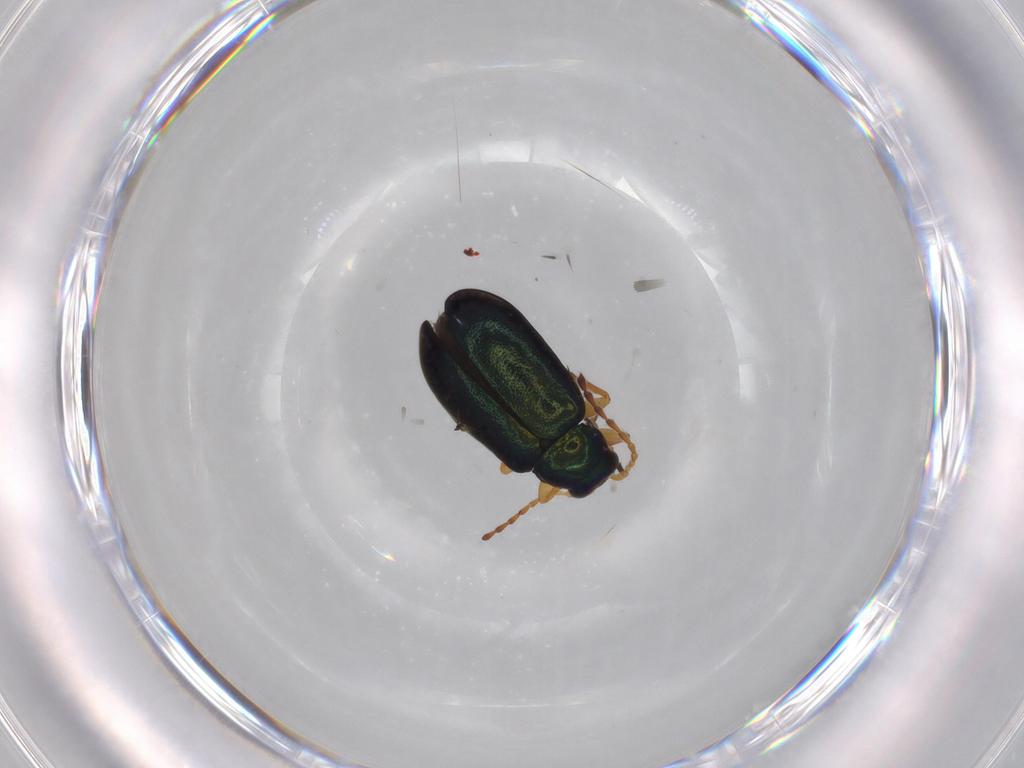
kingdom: Animalia
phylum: Arthropoda
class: Insecta
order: Coleoptera
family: Chrysomelidae
